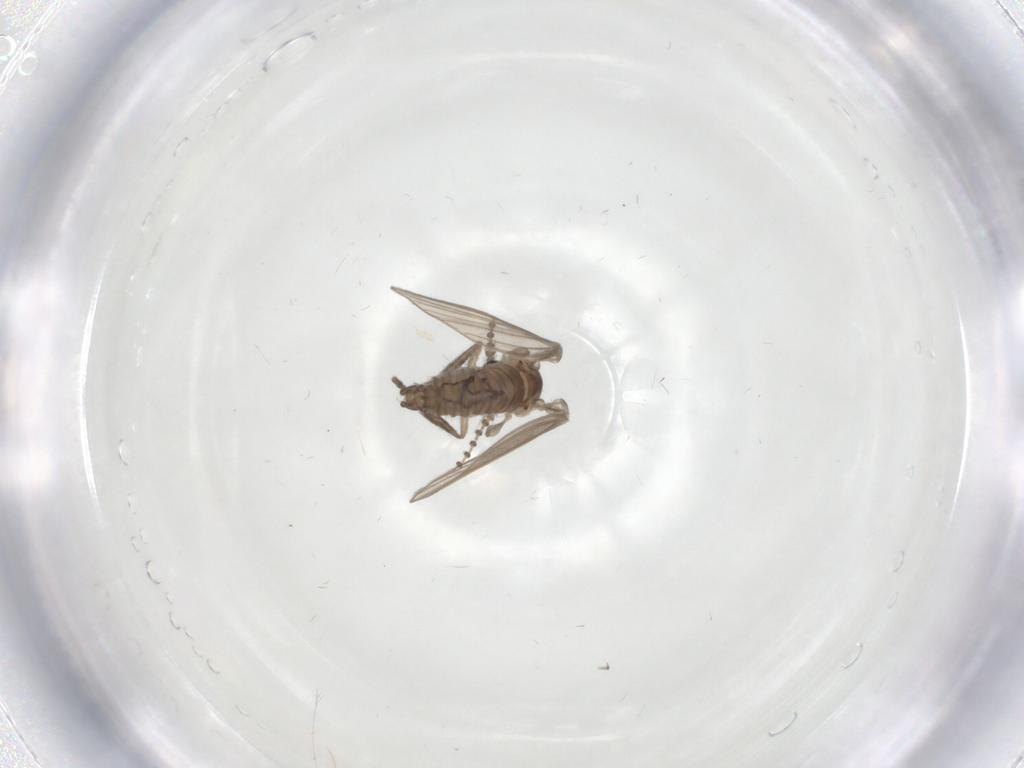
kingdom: Animalia
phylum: Arthropoda
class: Insecta
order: Diptera
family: Psychodidae
